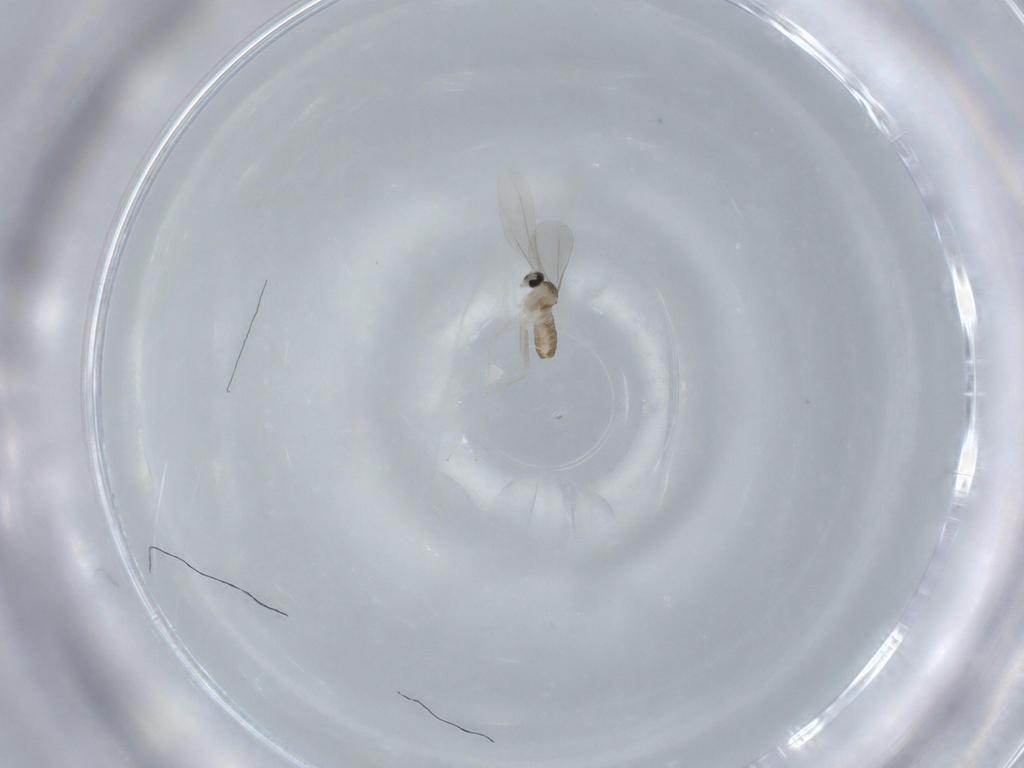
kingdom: Animalia
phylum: Arthropoda
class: Insecta
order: Diptera
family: Cecidomyiidae
